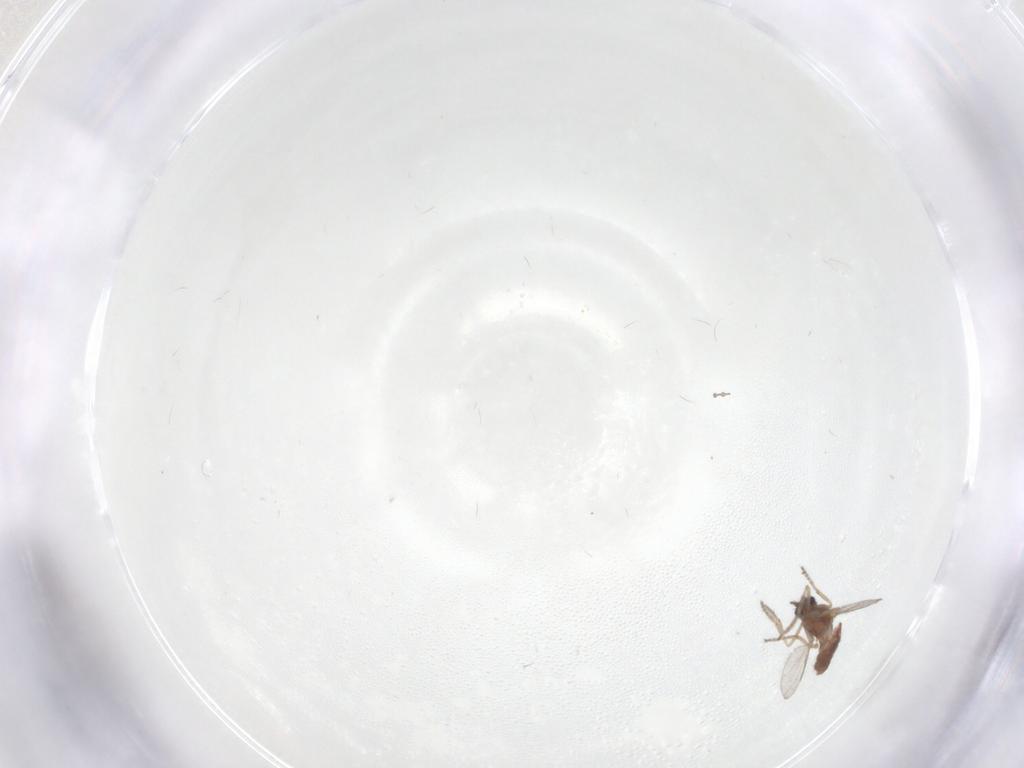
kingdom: Animalia
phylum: Arthropoda
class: Insecta
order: Diptera
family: Ceratopogonidae
